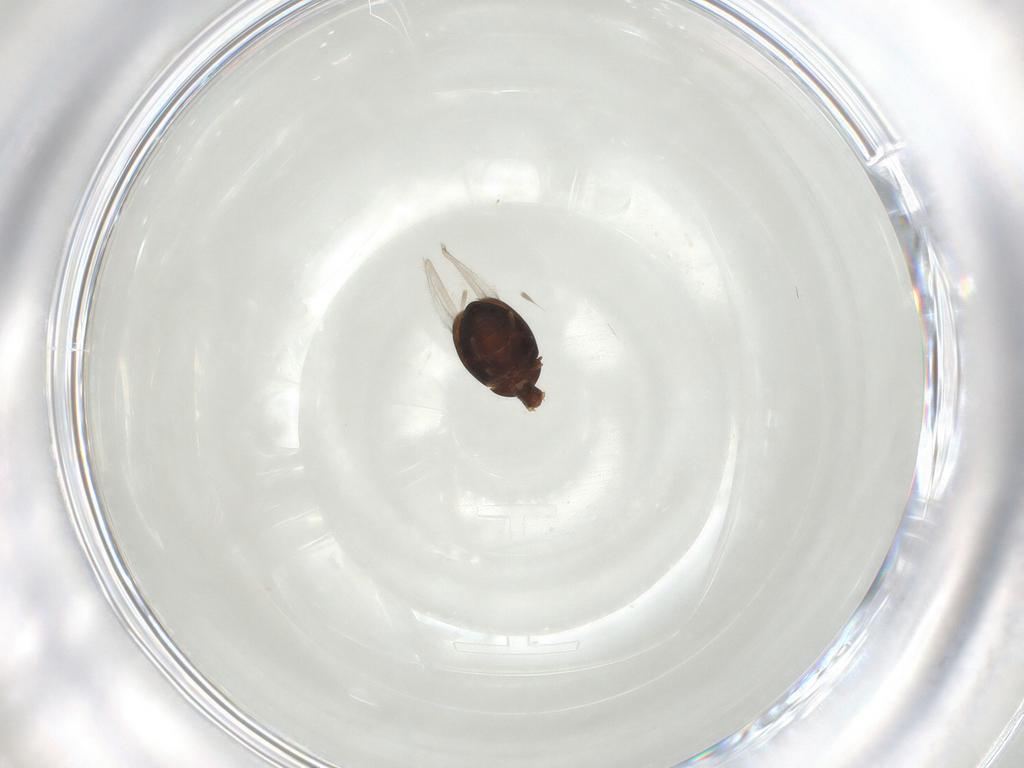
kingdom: Animalia
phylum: Arthropoda
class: Insecta
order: Coleoptera
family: Corylophidae
